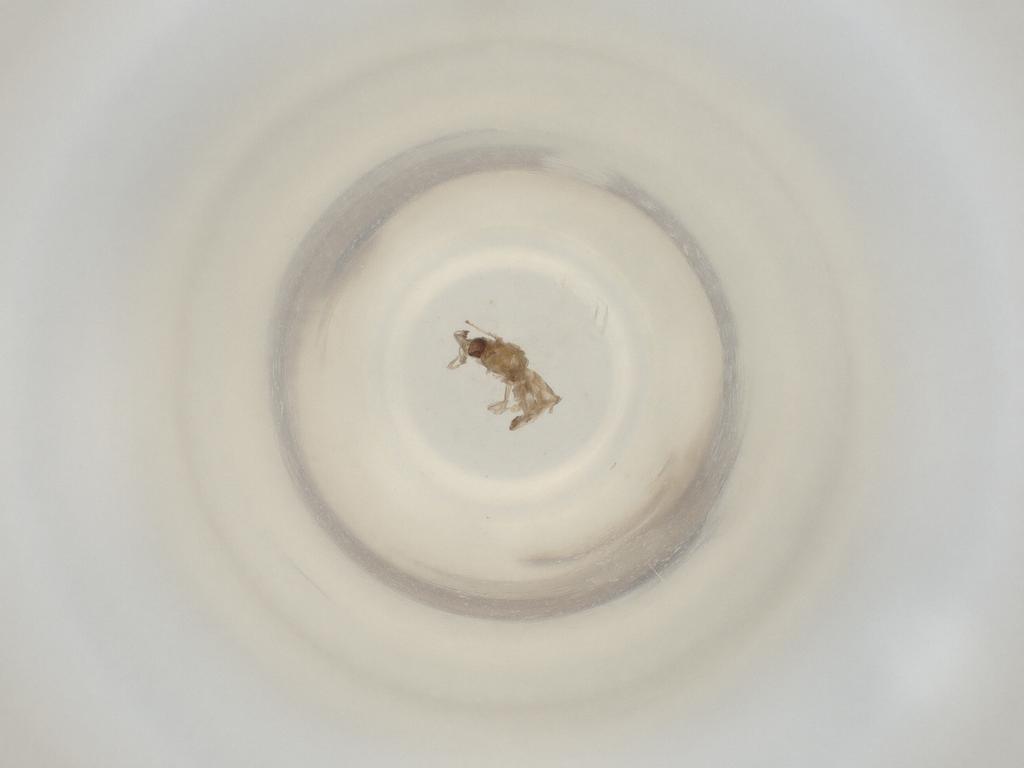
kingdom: Animalia
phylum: Arthropoda
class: Insecta
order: Diptera
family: Cecidomyiidae
